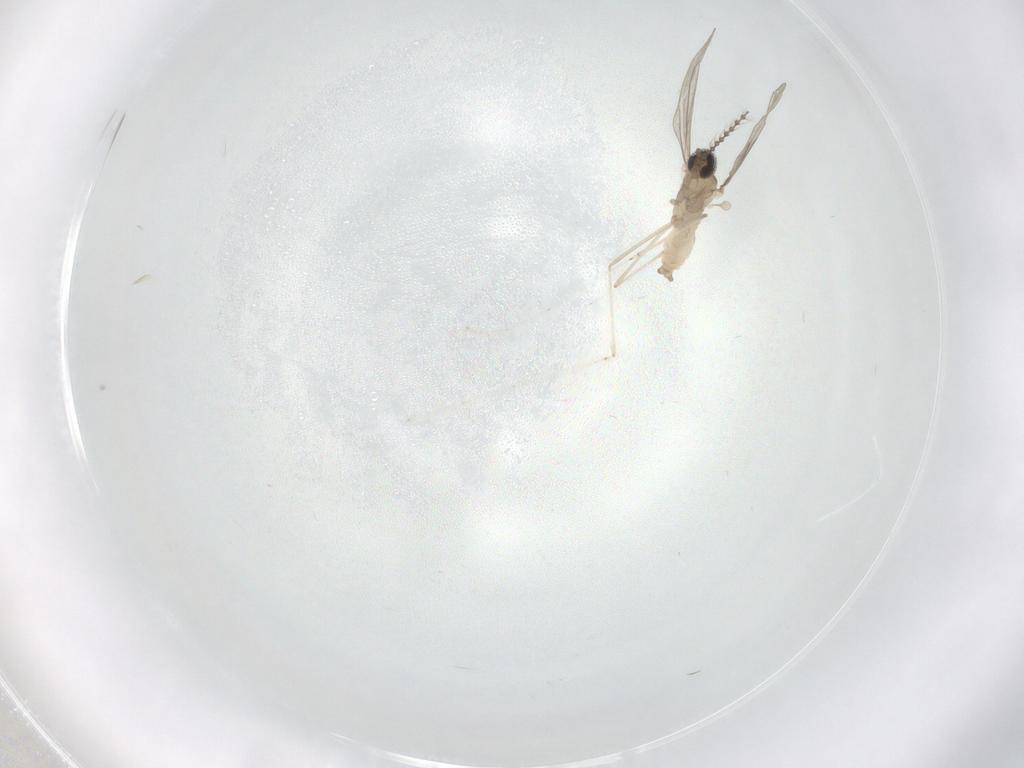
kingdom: Animalia
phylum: Arthropoda
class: Insecta
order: Diptera
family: Cecidomyiidae
